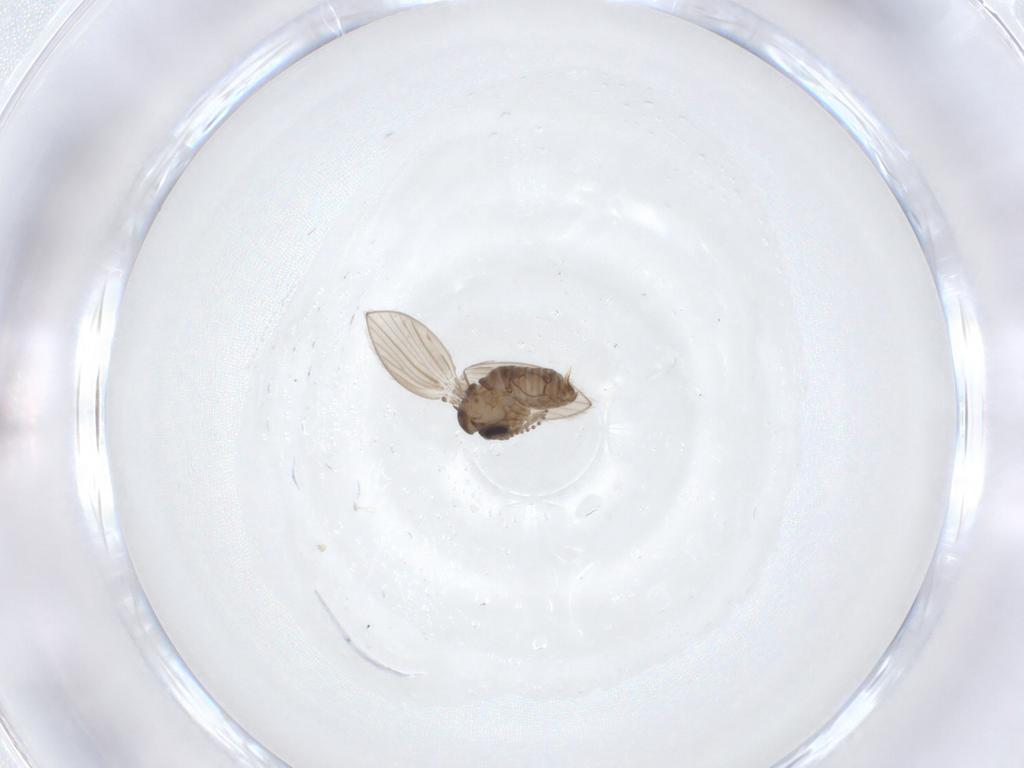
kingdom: Animalia
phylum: Arthropoda
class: Insecta
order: Diptera
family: Psychodidae
